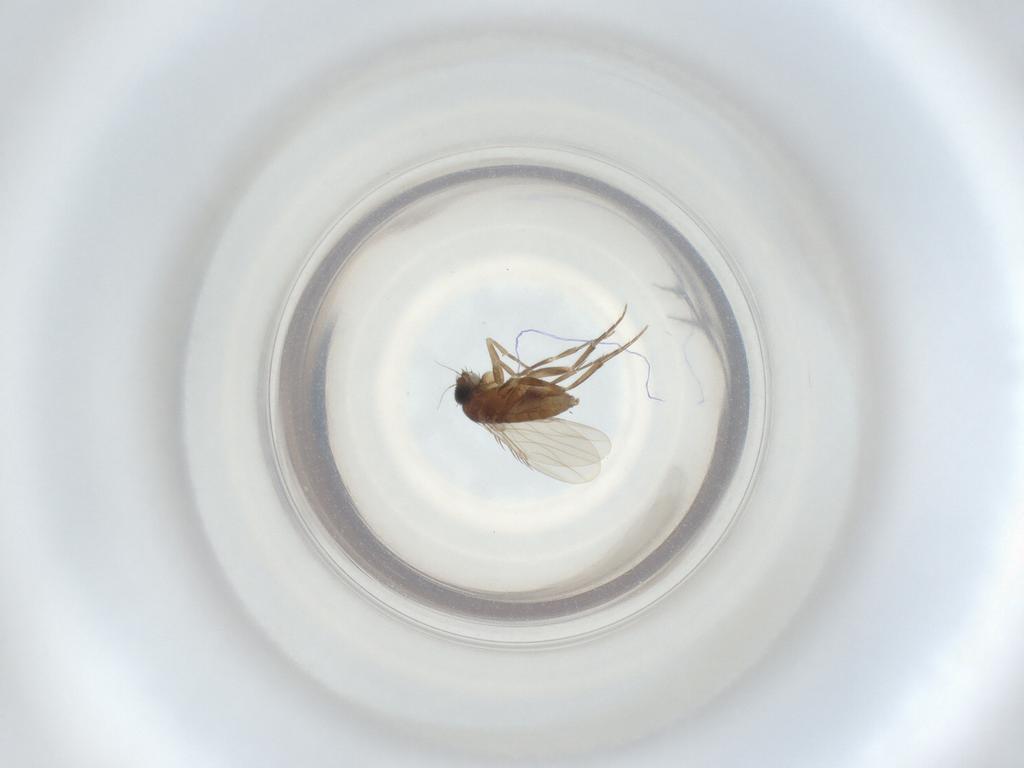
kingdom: Animalia
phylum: Arthropoda
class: Insecta
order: Diptera
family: Phoridae
